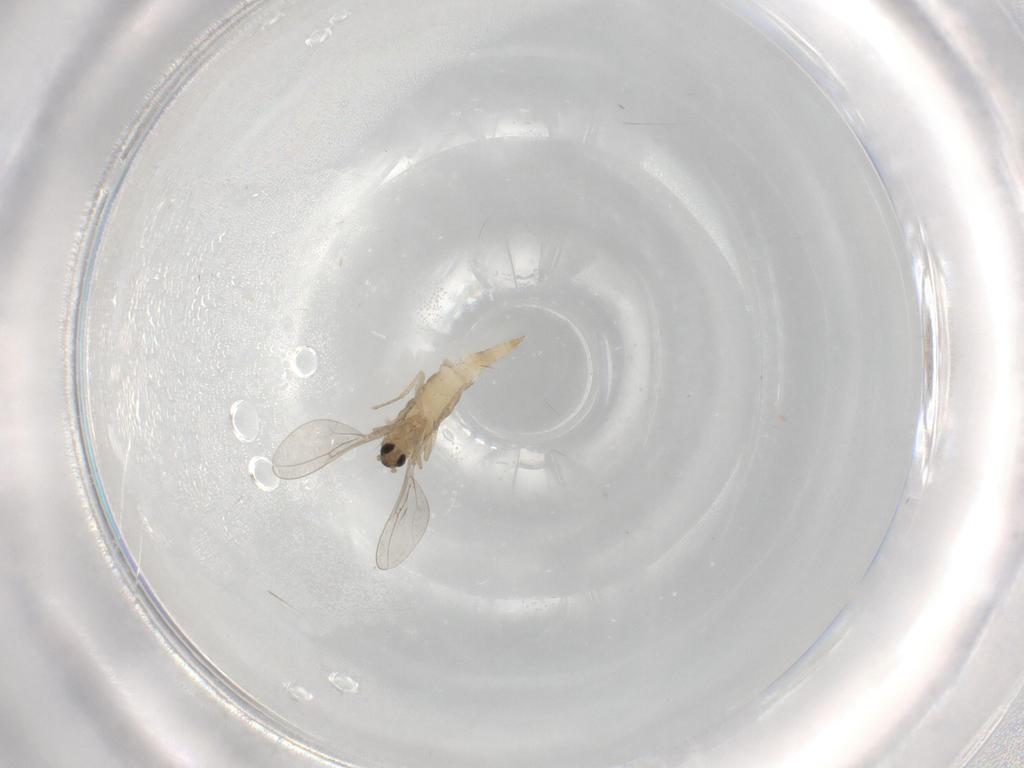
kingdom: Animalia
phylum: Arthropoda
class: Insecta
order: Diptera
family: Cecidomyiidae
